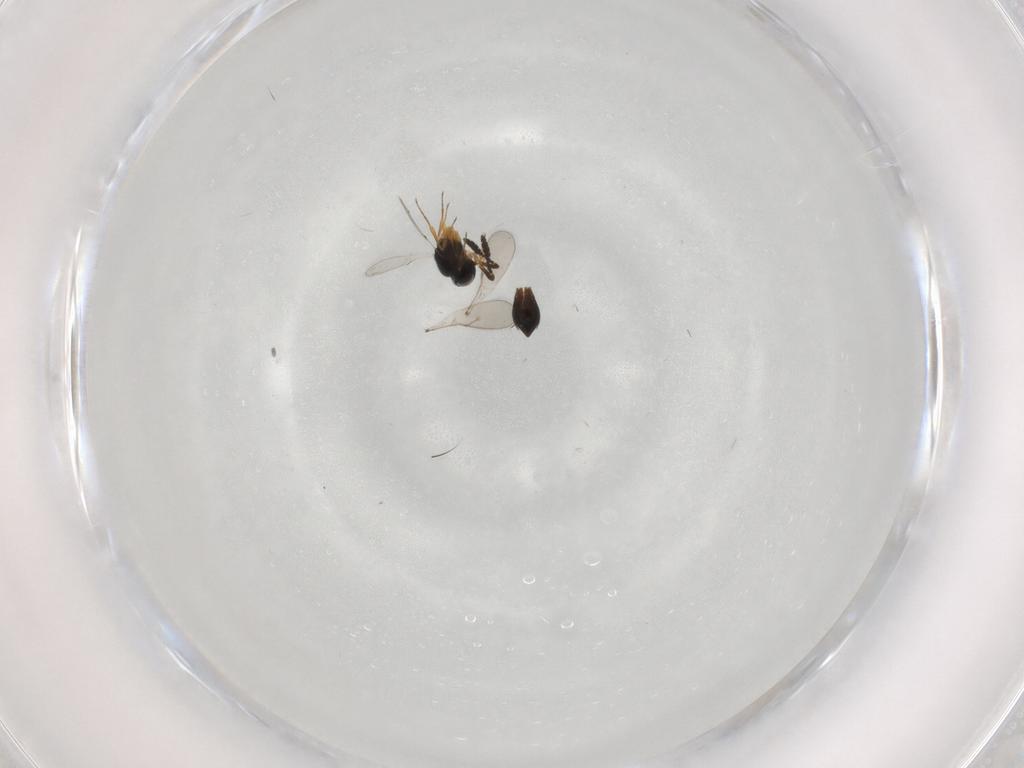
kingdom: Animalia
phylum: Arthropoda
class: Insecta
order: Hymenoptera
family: Scelionidae
